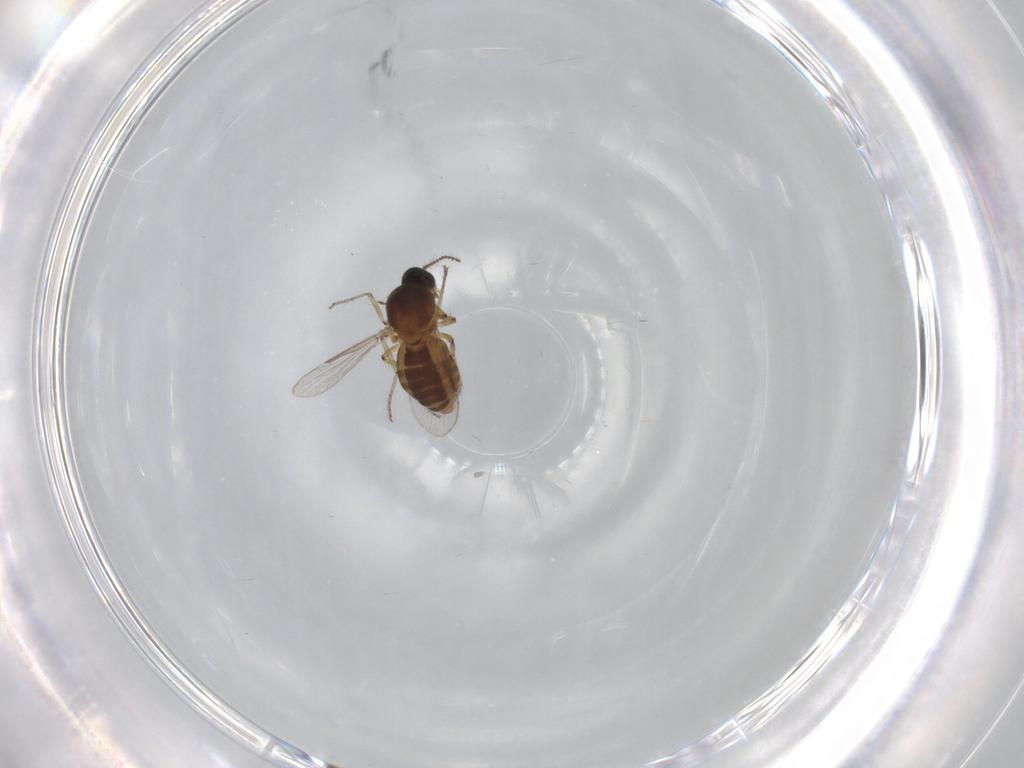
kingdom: Animalia
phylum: Arthropoda
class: Insecta
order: Diptera
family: Ceratopogonidae
